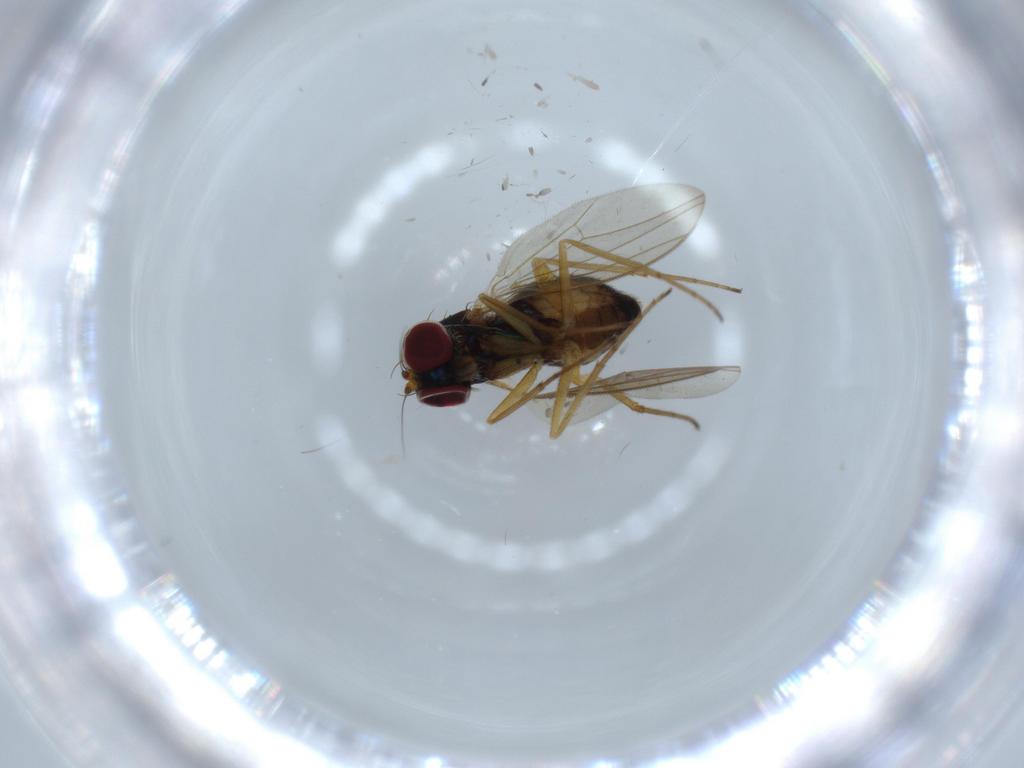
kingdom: Animalia
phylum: Arthropoda
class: Insecta
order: Diptera
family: Dolichopodidae
